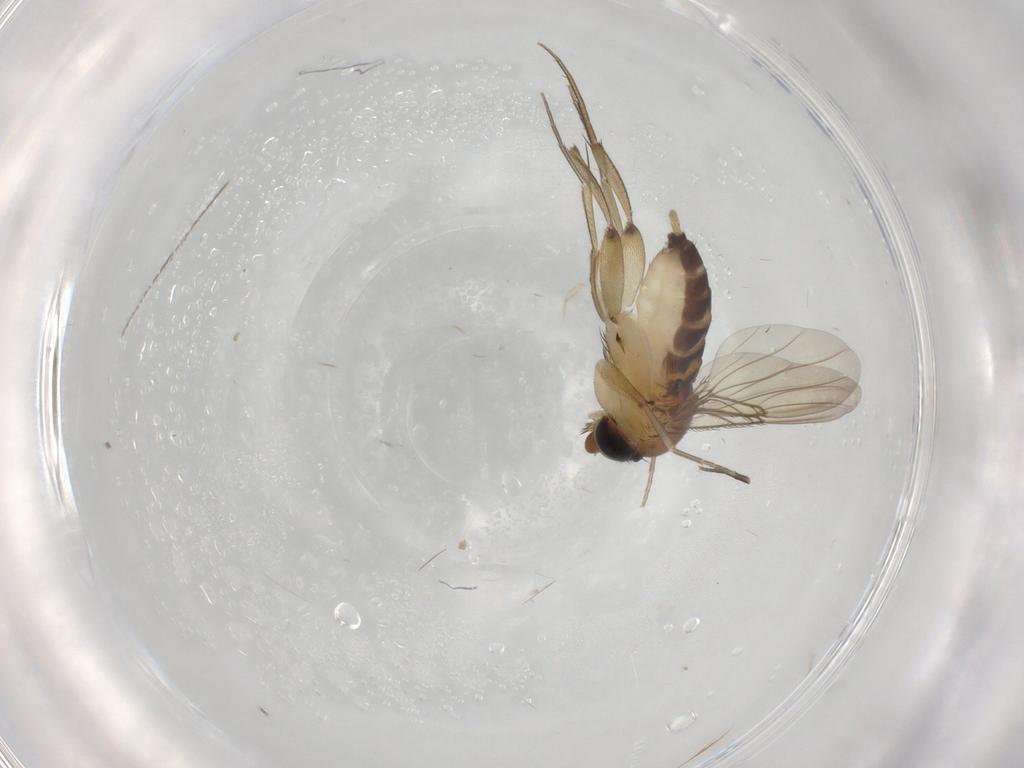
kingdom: Animalia
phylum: Arthropoda
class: Insecta
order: Diptera
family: Phoridae
